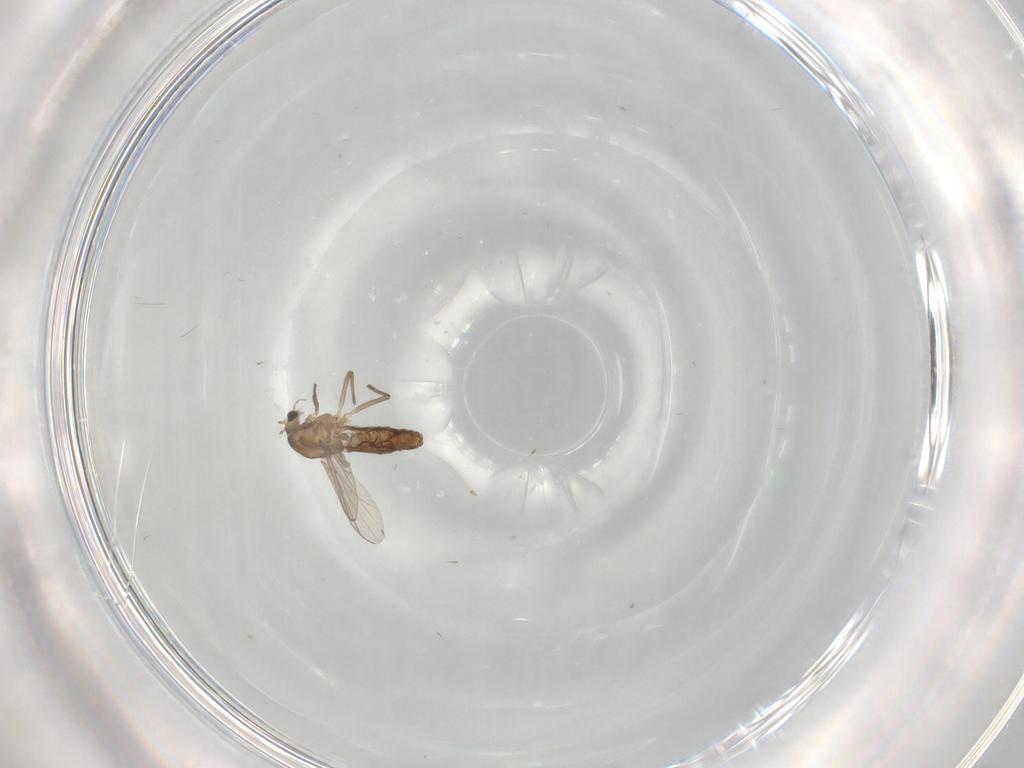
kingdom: Animalia
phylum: Arthropoda
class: Insecta
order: Diptera
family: Chironomidae
